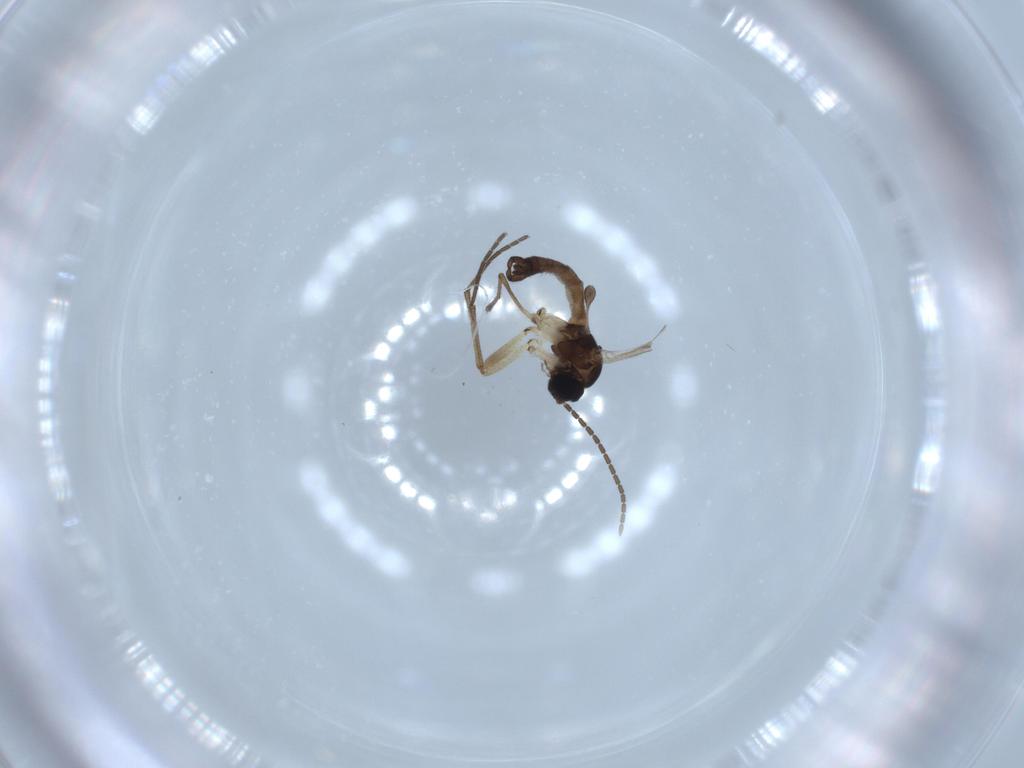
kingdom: Animalia
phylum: Arthropoda
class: Insecta
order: Diptera
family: Sciaridae
